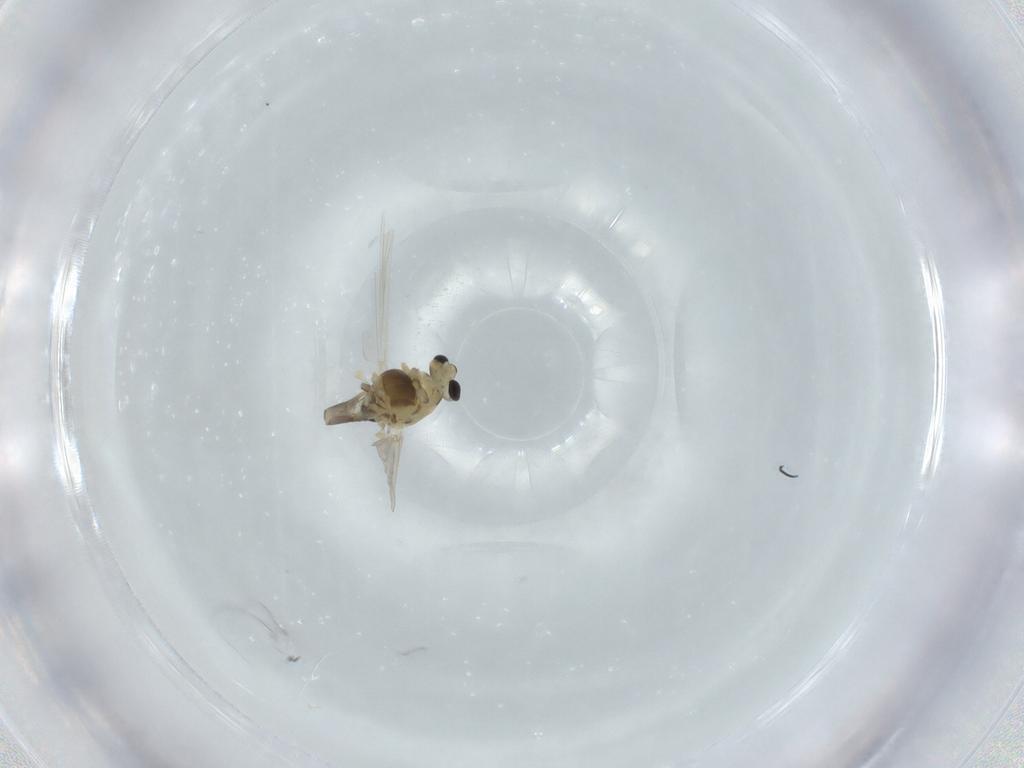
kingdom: Animalia
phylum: Arthropoda
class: Insecta
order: Diptera
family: Chironomidae
